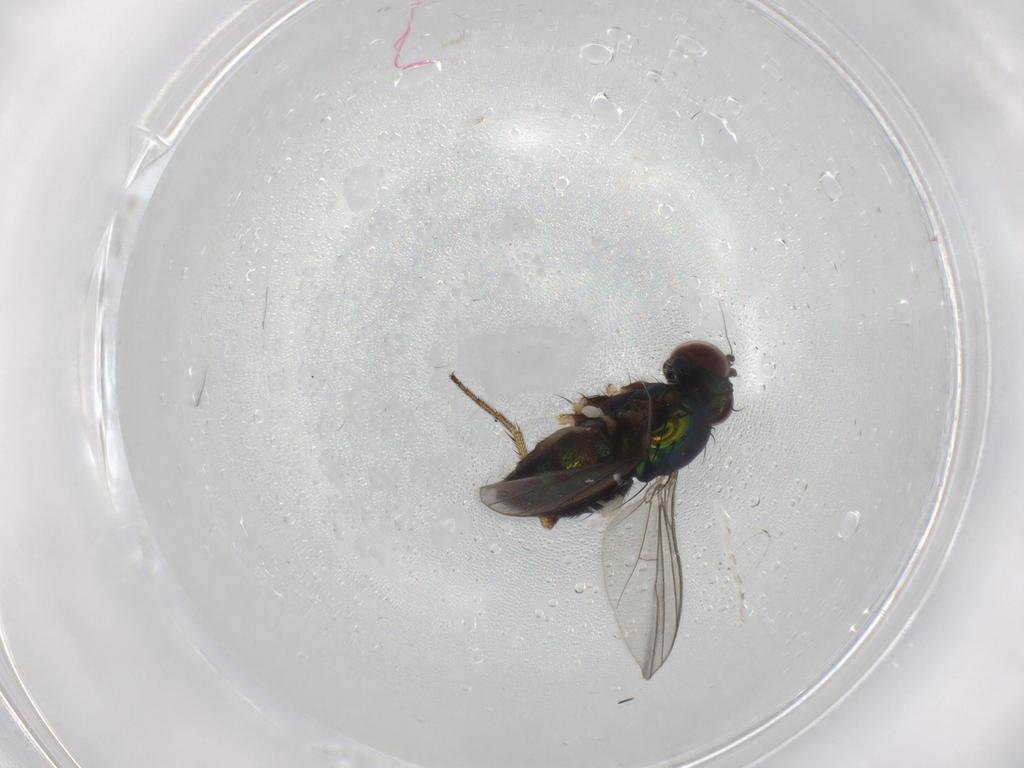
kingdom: Animalia
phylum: Arthropoda
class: Insecta
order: Diptera
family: Dolichopodidae
